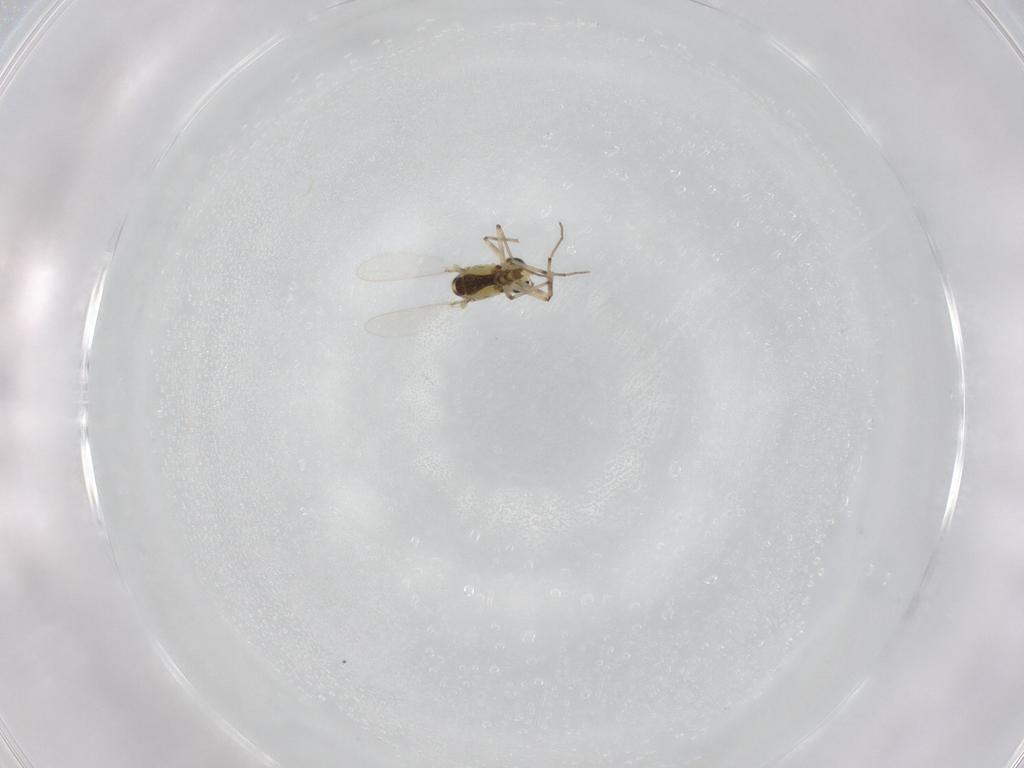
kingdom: Animalia
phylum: Arthropoda
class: Insecta
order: Diptera
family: Chironomidae
